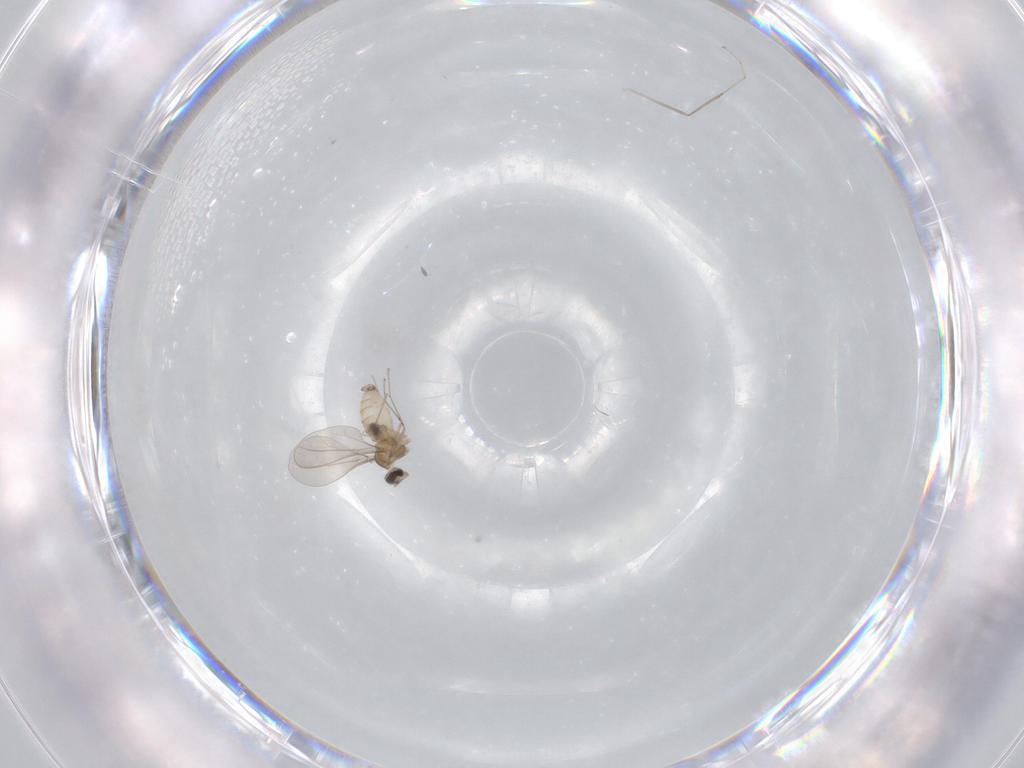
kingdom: Animalia
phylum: Arthropoda
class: Insecta
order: Diptera
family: Cecidomyiidae
